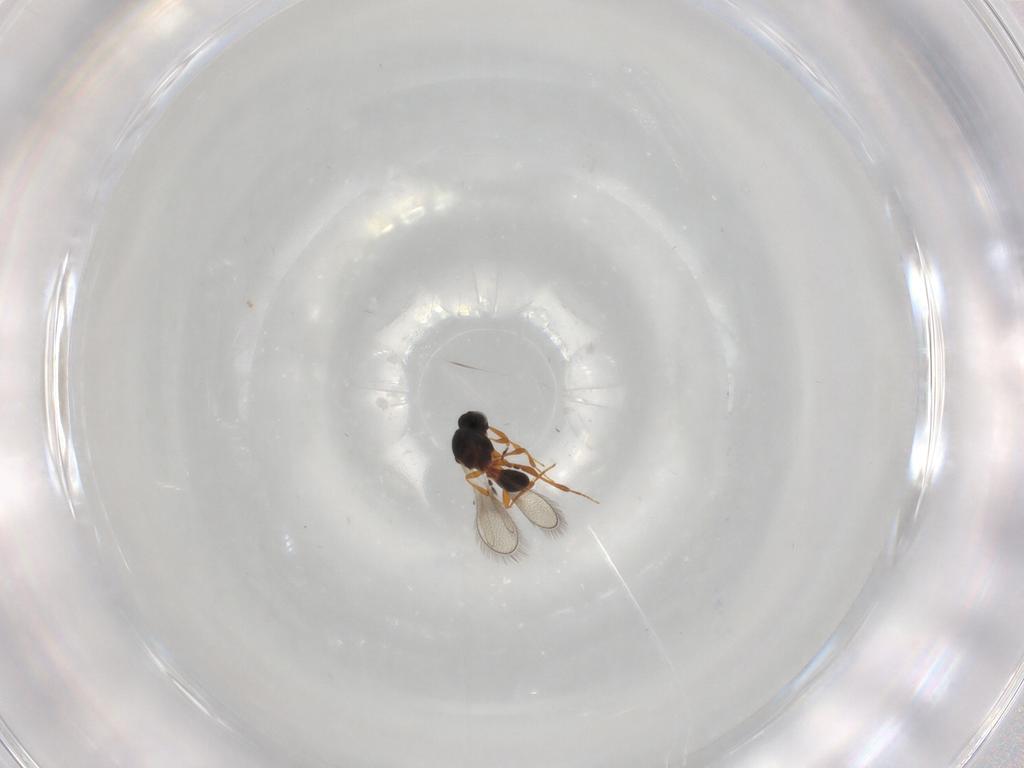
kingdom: Animalia
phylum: Arthropoda
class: Insecta
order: Hymenoptera
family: Platygastridae
